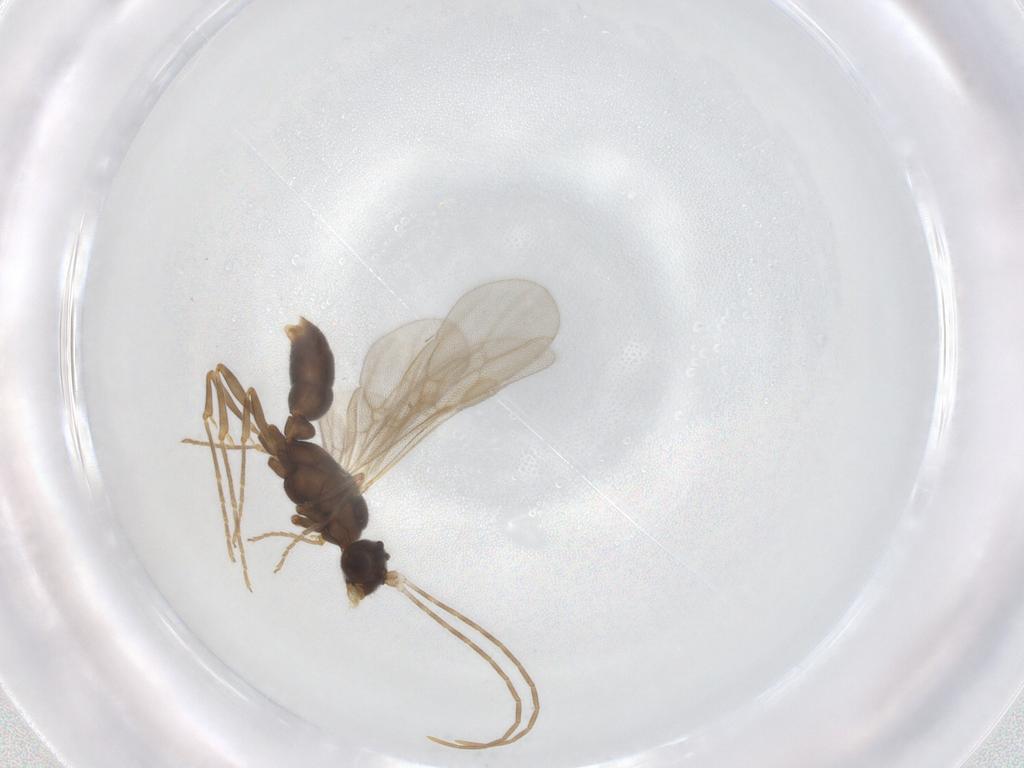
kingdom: Animalia
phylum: Arthropoda
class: Insecta
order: Hymenoptera
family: Formicidae
